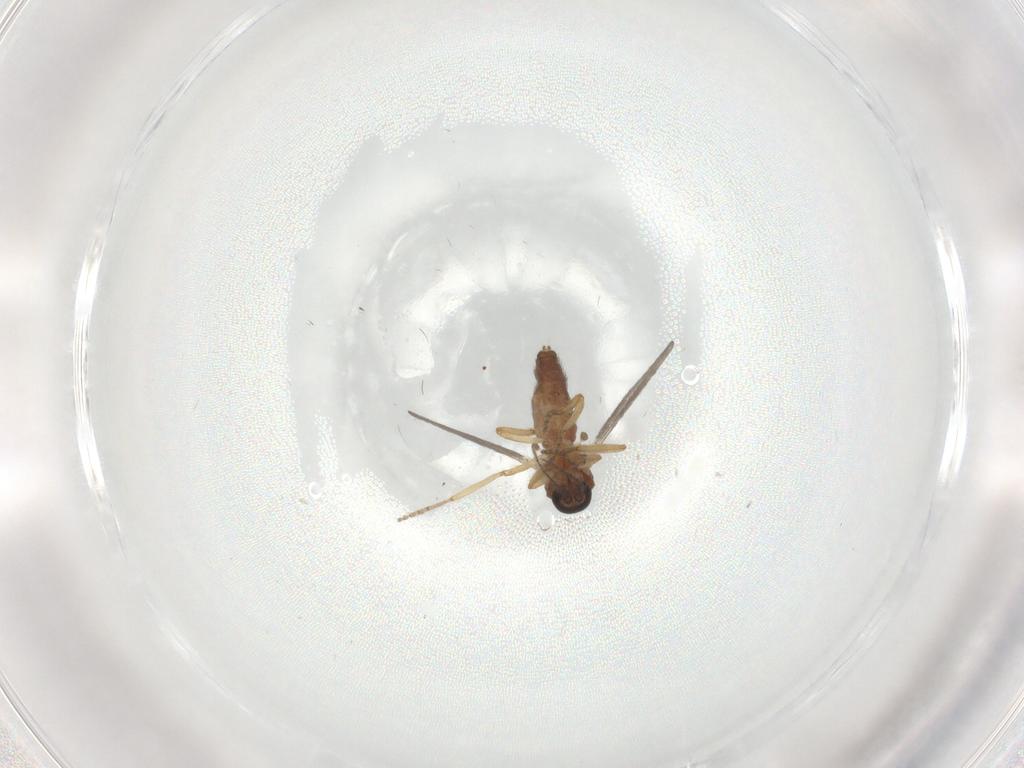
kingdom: Animalia
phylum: Arthropoda
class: Insecta
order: Diptera
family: Ceratopogonidae
